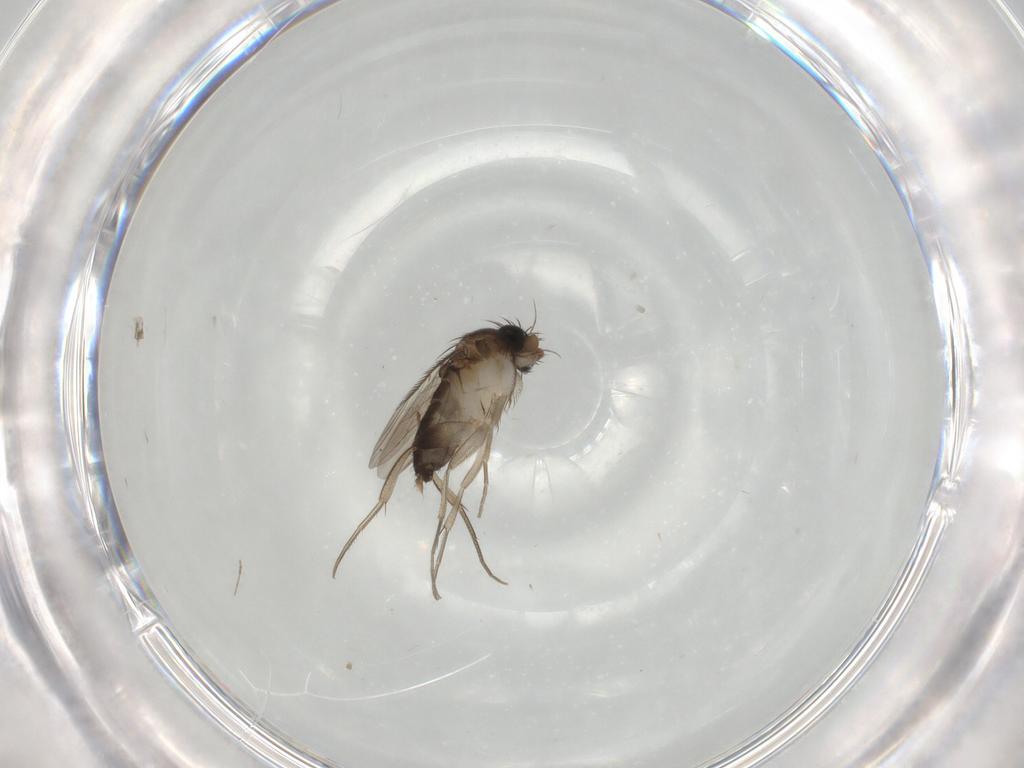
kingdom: Animalia
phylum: Arthropoda
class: Insecta
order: Diptera
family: Phoridae
